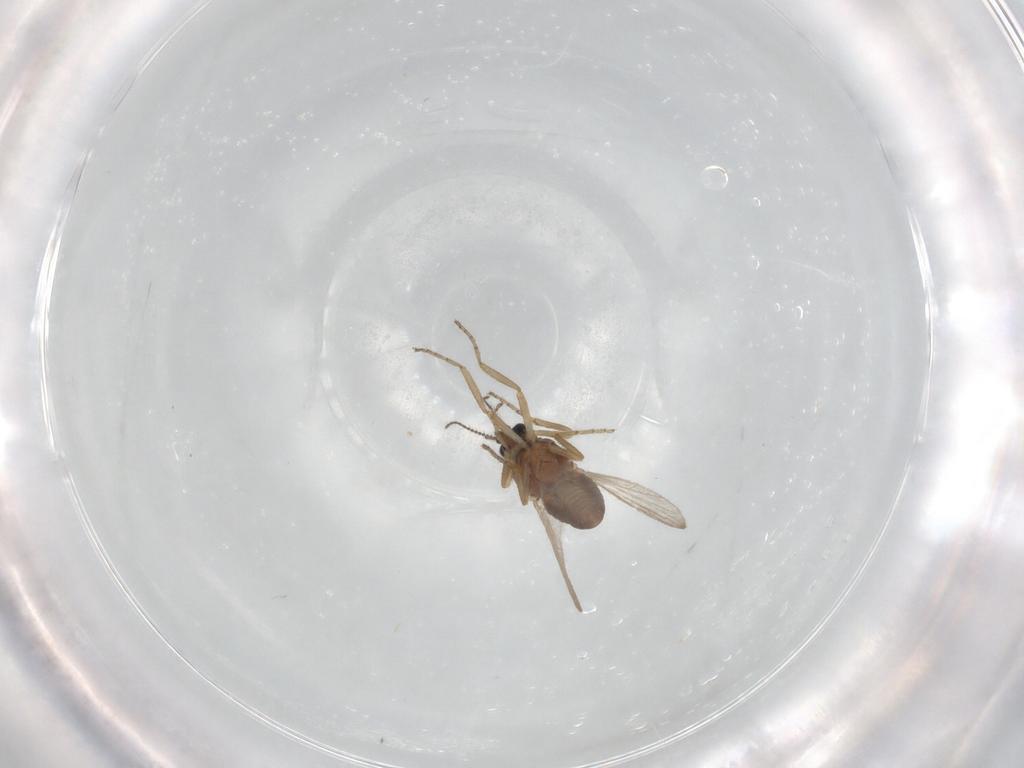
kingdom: Animalia
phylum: Arthropoda
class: Insecta
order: Diptera
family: Ceratopogonidae
